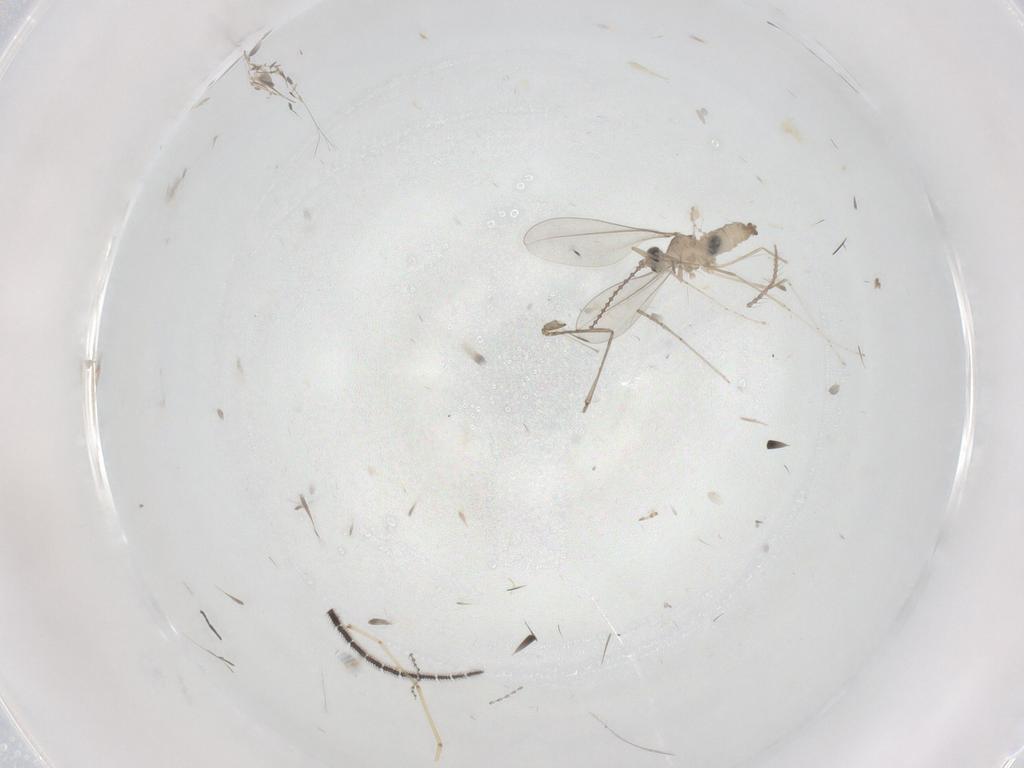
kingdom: Animalia
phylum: Arthropoda
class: Insecta
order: Diptera
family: Cecidomyiidae
